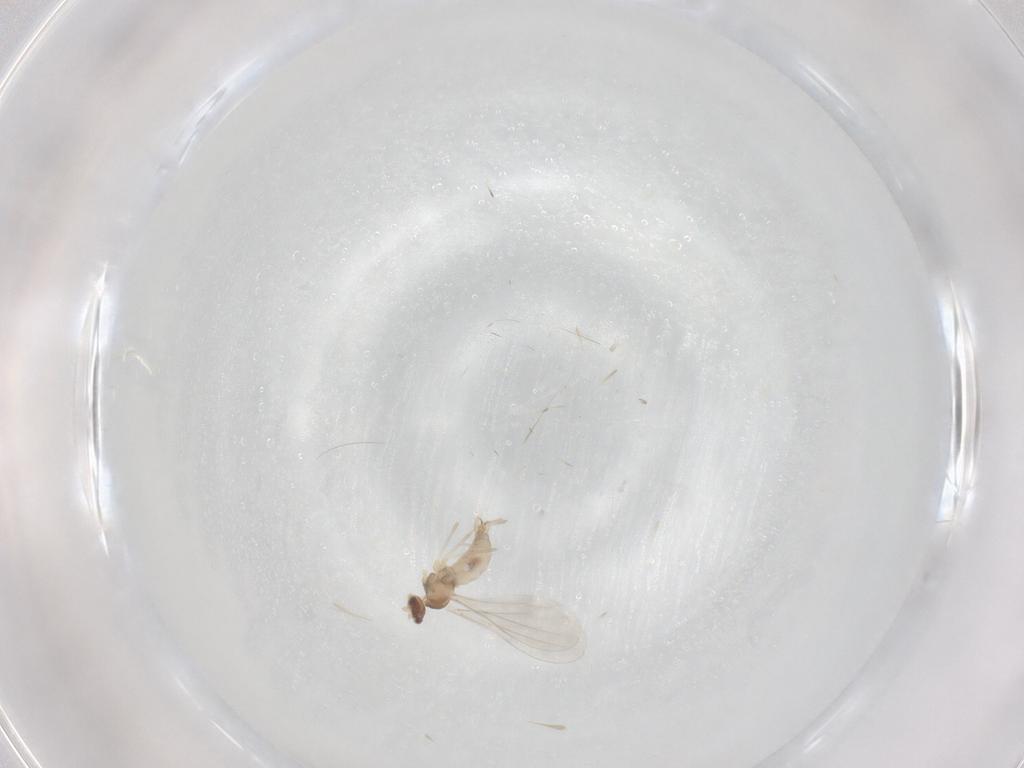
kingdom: Animalia
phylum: Arthropoda
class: Insecta
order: Diptera
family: Cecidomyiidae
